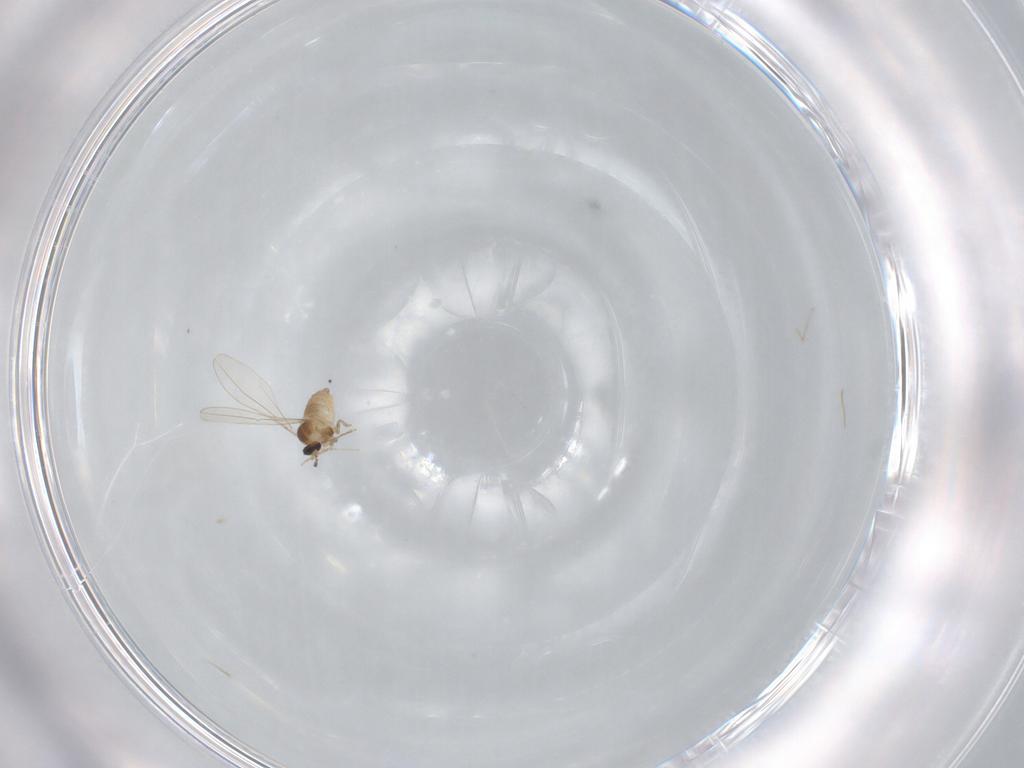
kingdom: Animalia
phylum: Arthropoda
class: Insecta
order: Diptera
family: Cecidomyiidae
